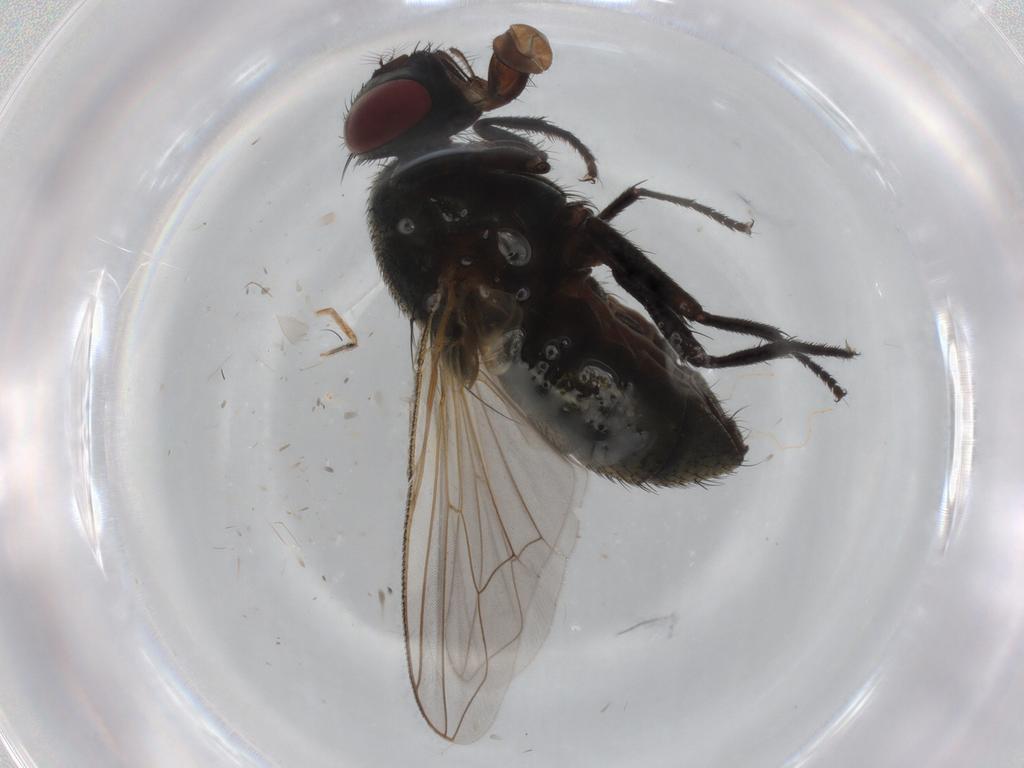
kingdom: Animalia
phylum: Arthropoda
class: Insecta
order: Diptera
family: Muscidae
